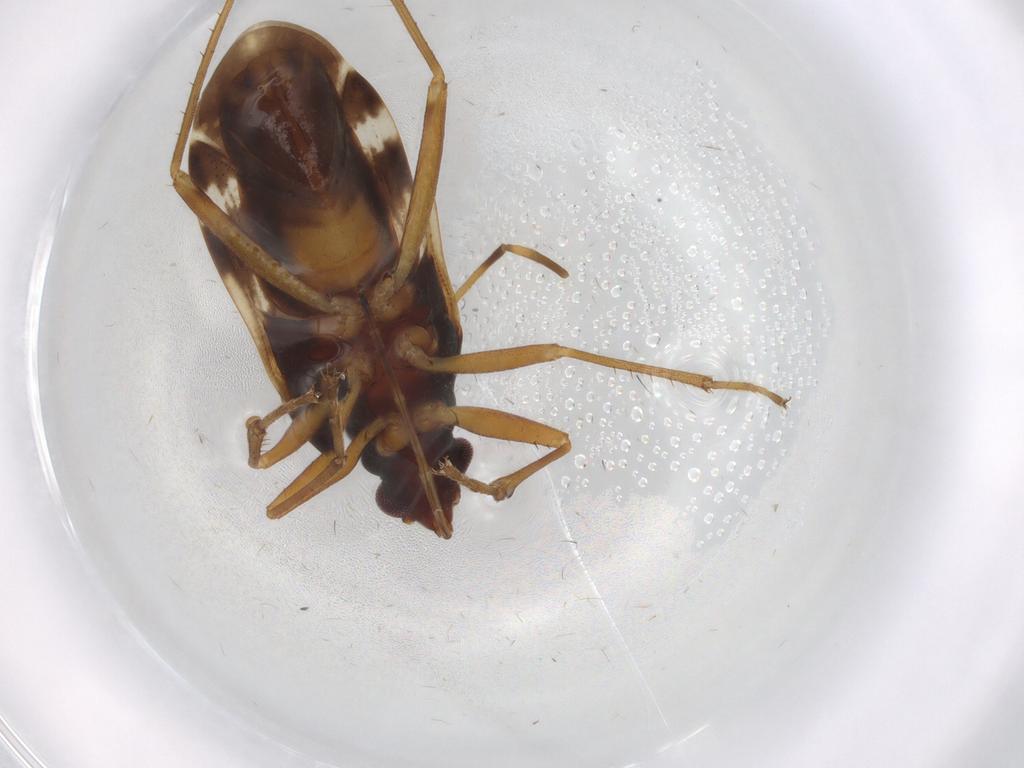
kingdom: Animalia
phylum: Arthropoda
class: Insecta
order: Hemiptera
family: Rhyparochromidae
